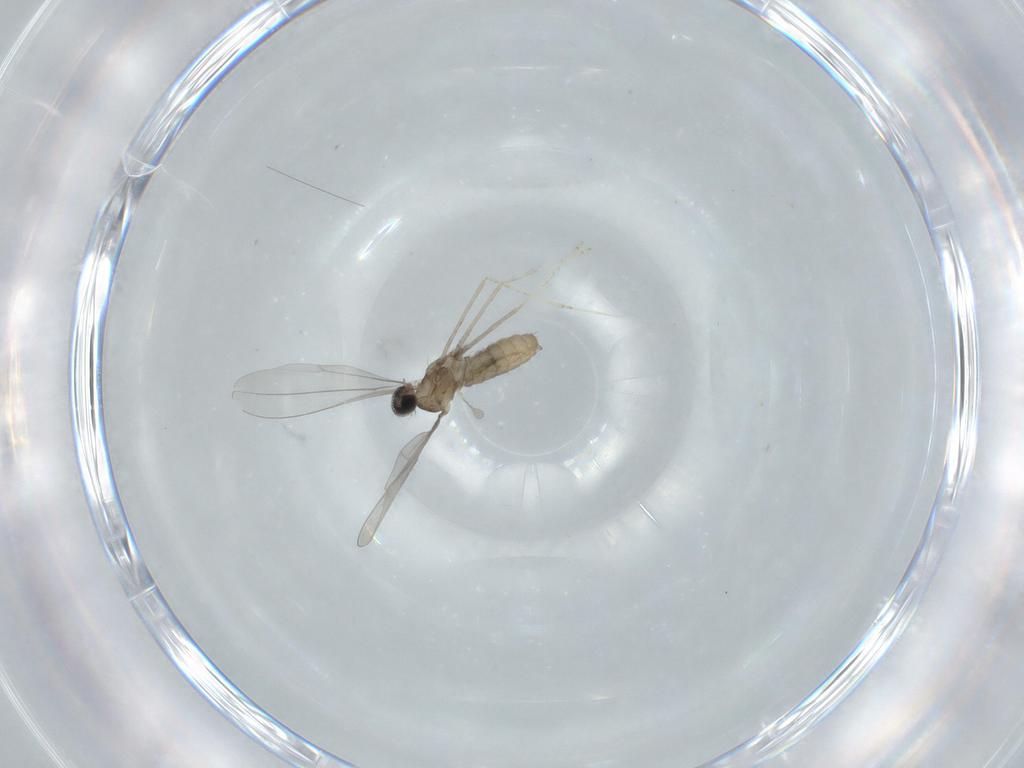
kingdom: Animalia
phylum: Arthropoda
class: Insecta
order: Diptera
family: Cecidomyiidae
